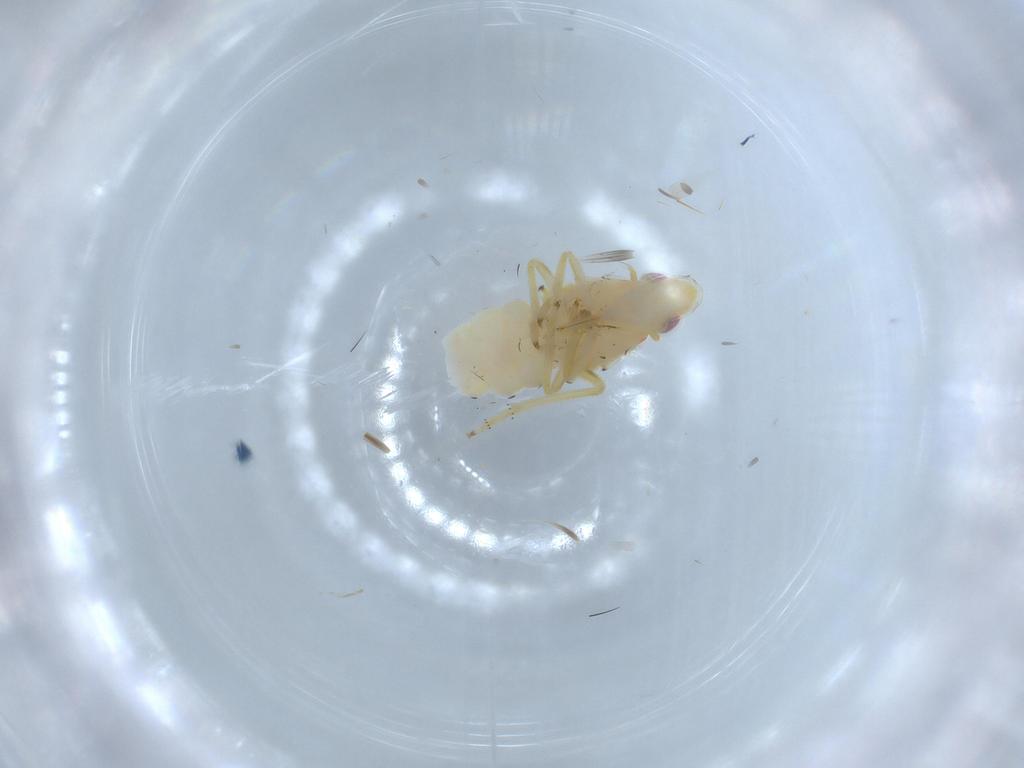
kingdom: Animalia
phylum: Arthropoda
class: Insecta
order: Hemiptera
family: Tropiduchidae
